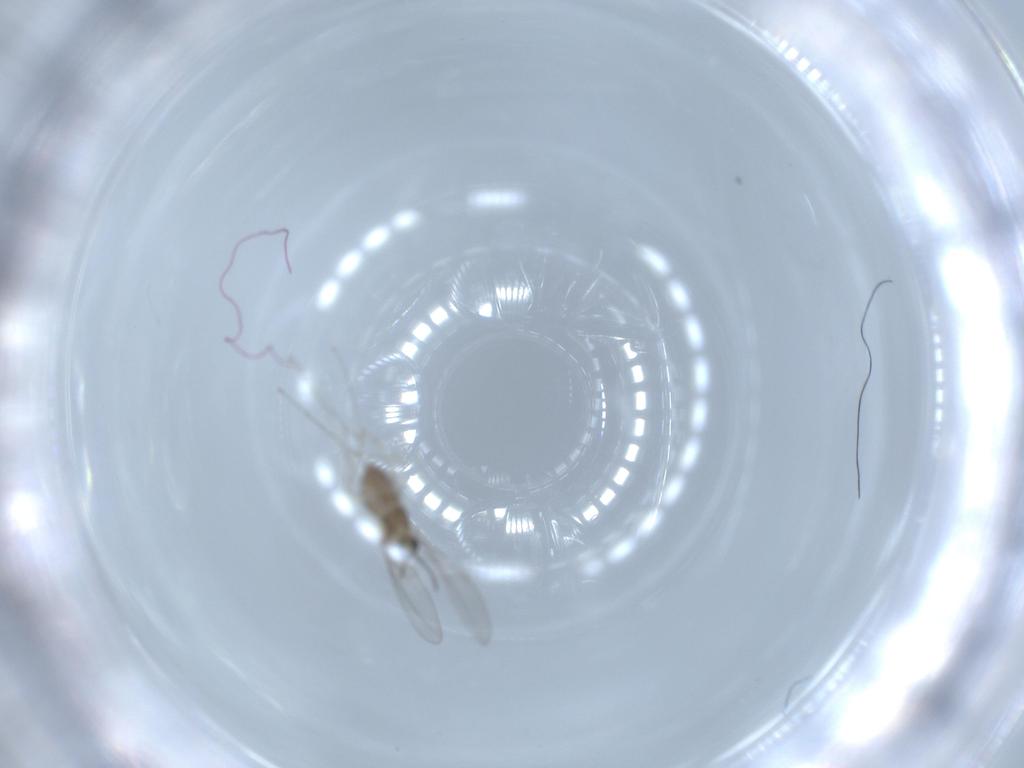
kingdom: Animalia
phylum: Arthropoda
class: Insecta
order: Diptera
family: Cecidomyiidae
